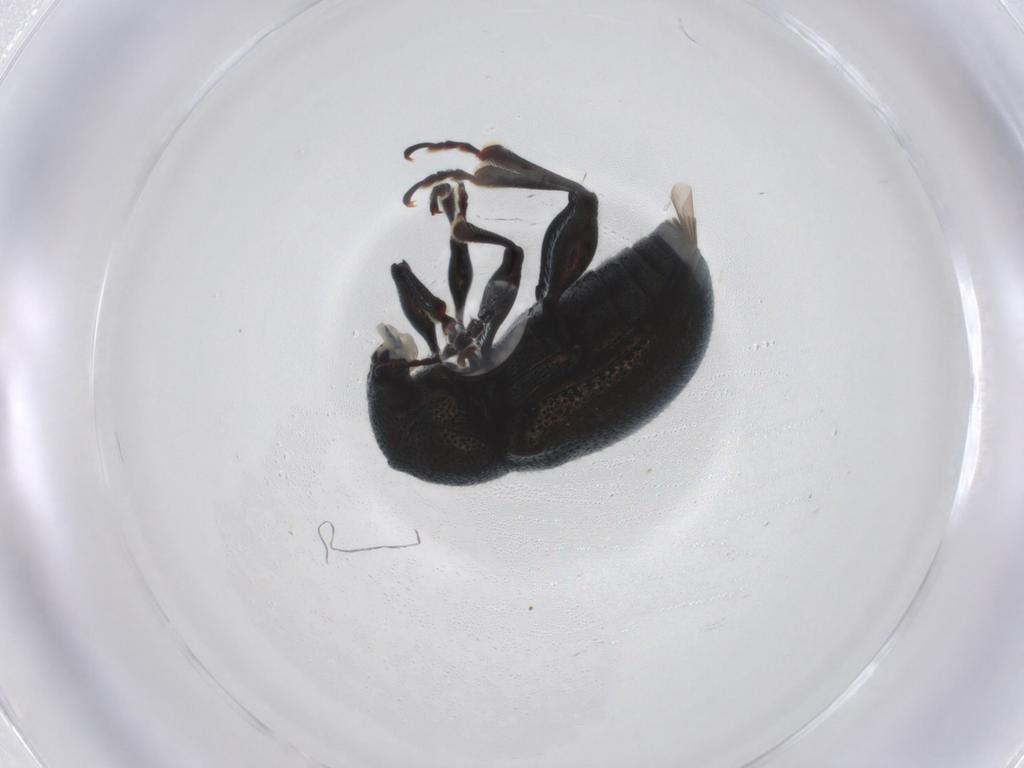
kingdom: Animalia
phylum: Arthropoda
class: Insecta
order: Coleoptera
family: Chrysomelidae
